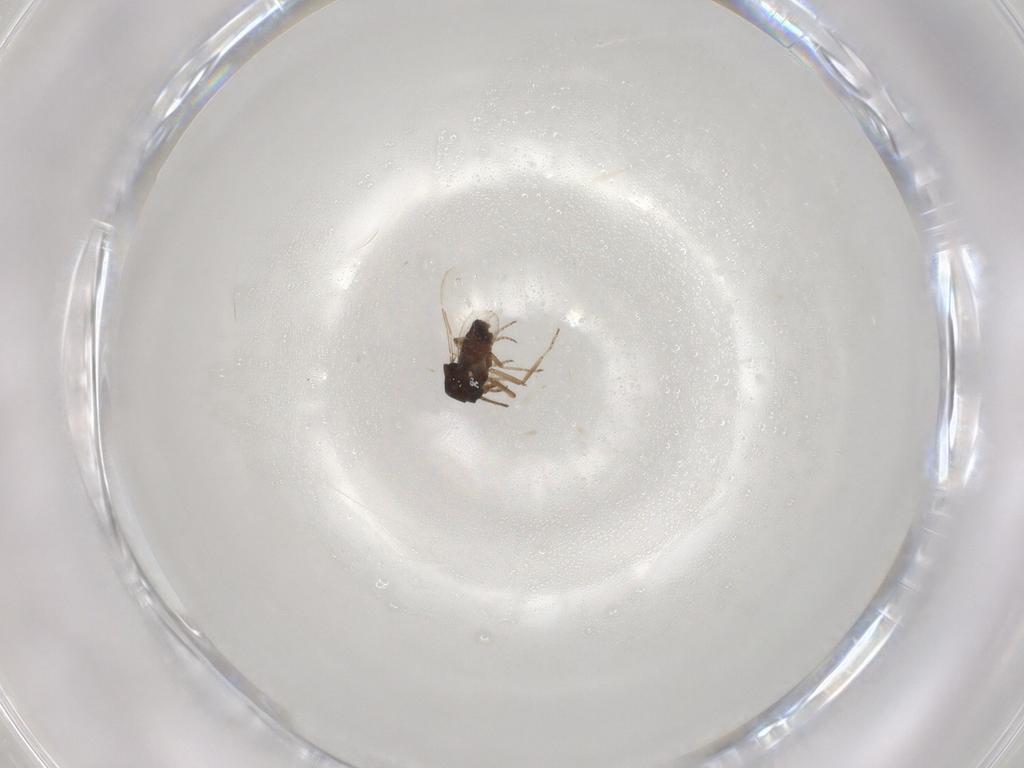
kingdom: Animalia
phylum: Arthropoda
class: Insecta
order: Diptera
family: Ceratopogonidae
